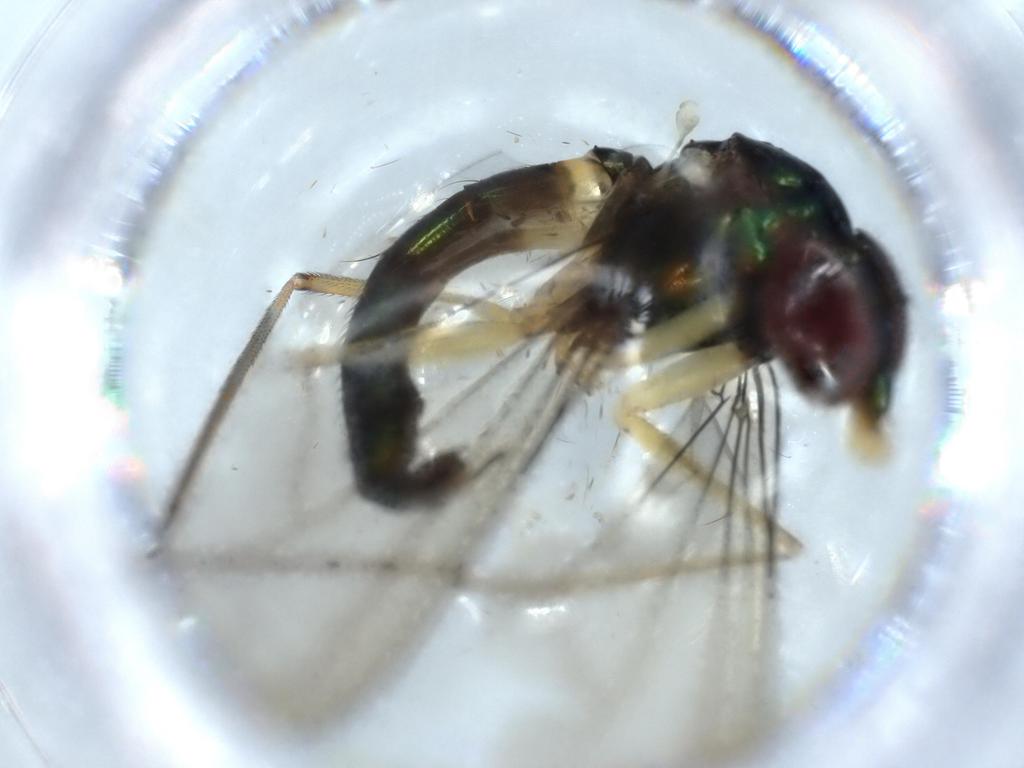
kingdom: Animalia
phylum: Arthropoda
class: Insecta
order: Diptera
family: Dolichopodidae
